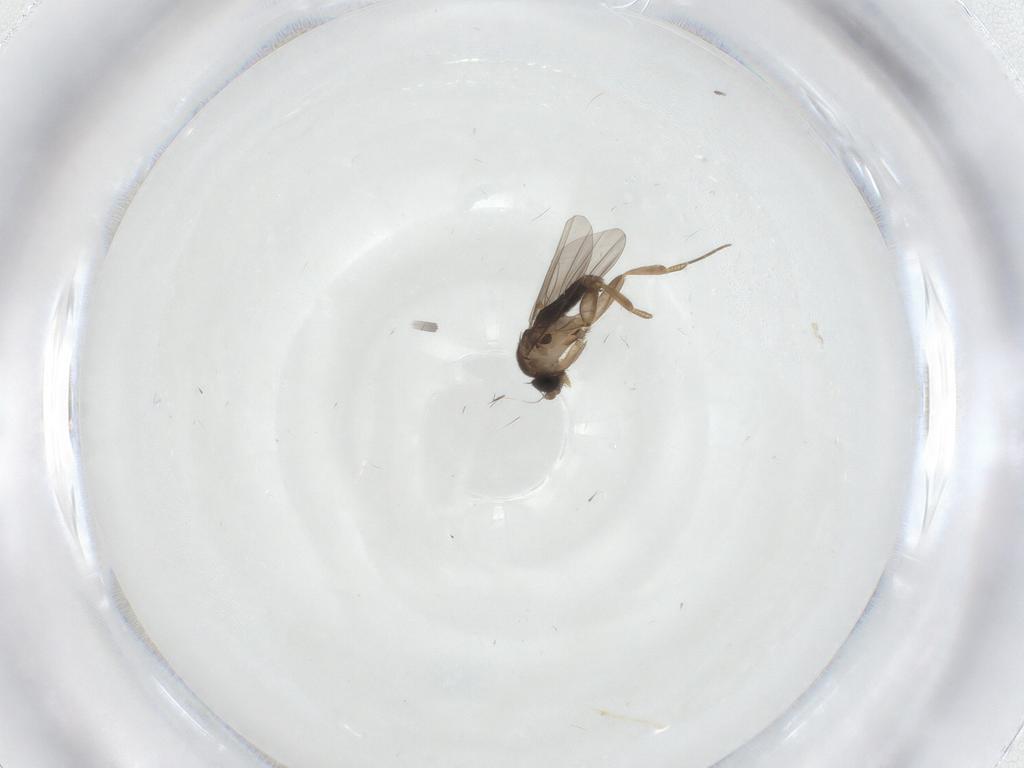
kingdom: Animalia
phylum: Arthropoda
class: Insecta
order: Diptera
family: Phoridae
